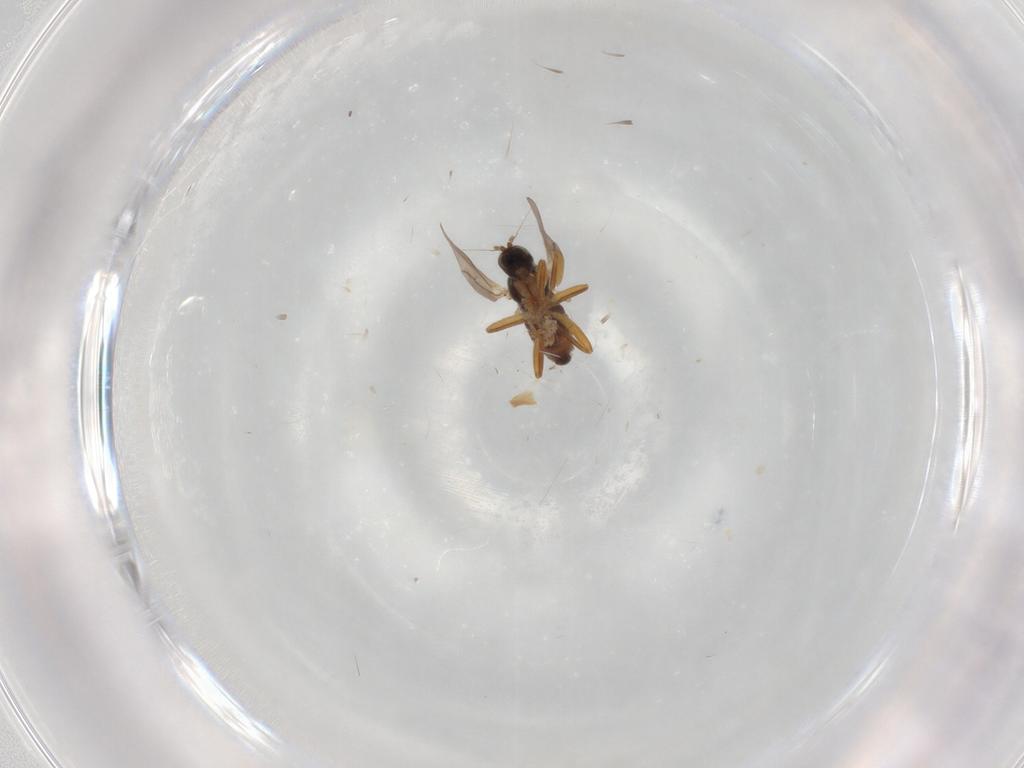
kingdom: Animalia
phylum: Arthropoda
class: Insecta
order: Diptera
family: Hybotidae
